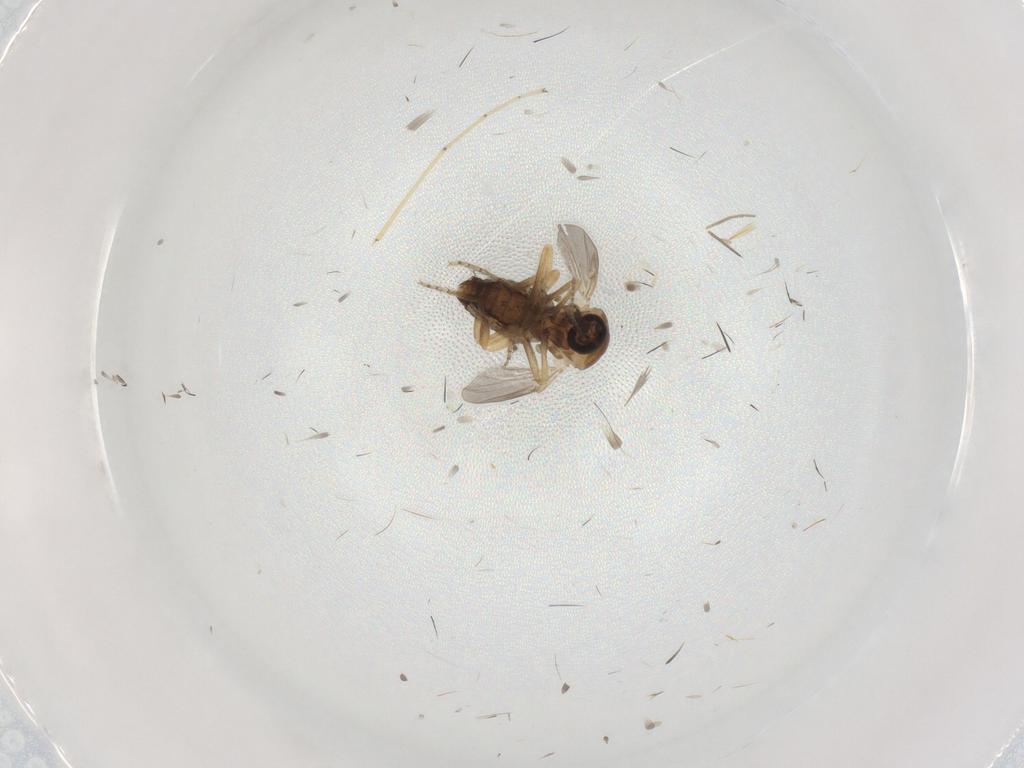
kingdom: Animalia
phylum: Arthropoda
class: Insecta
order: Diptera
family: Ceratopogonidae
